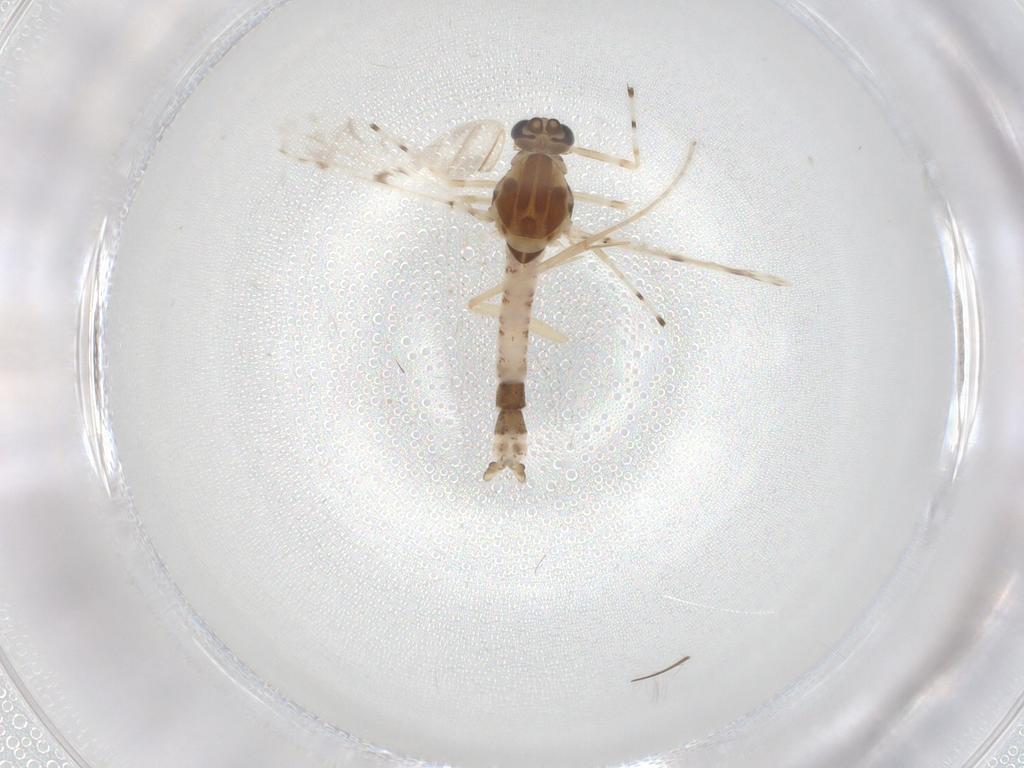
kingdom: Animalia
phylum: Arthropoda
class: Insecta
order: Diptera
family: Chironomidae
